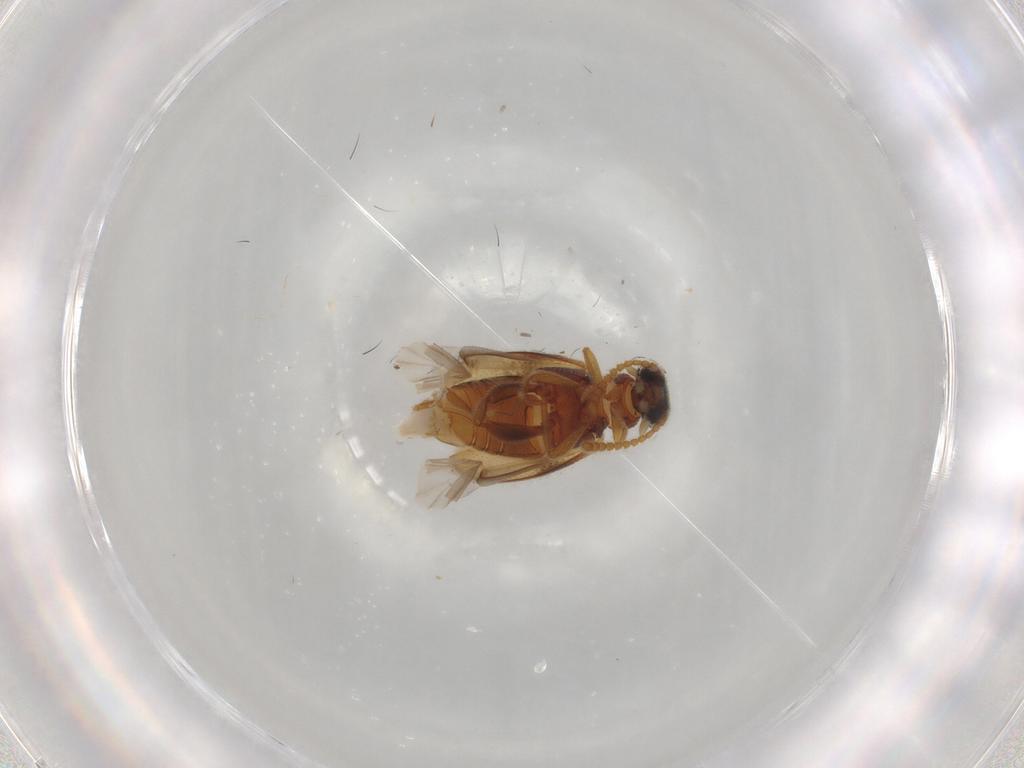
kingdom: Animalia
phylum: Arthropoda
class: Insecta
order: Coleoptera
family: Aderidae
